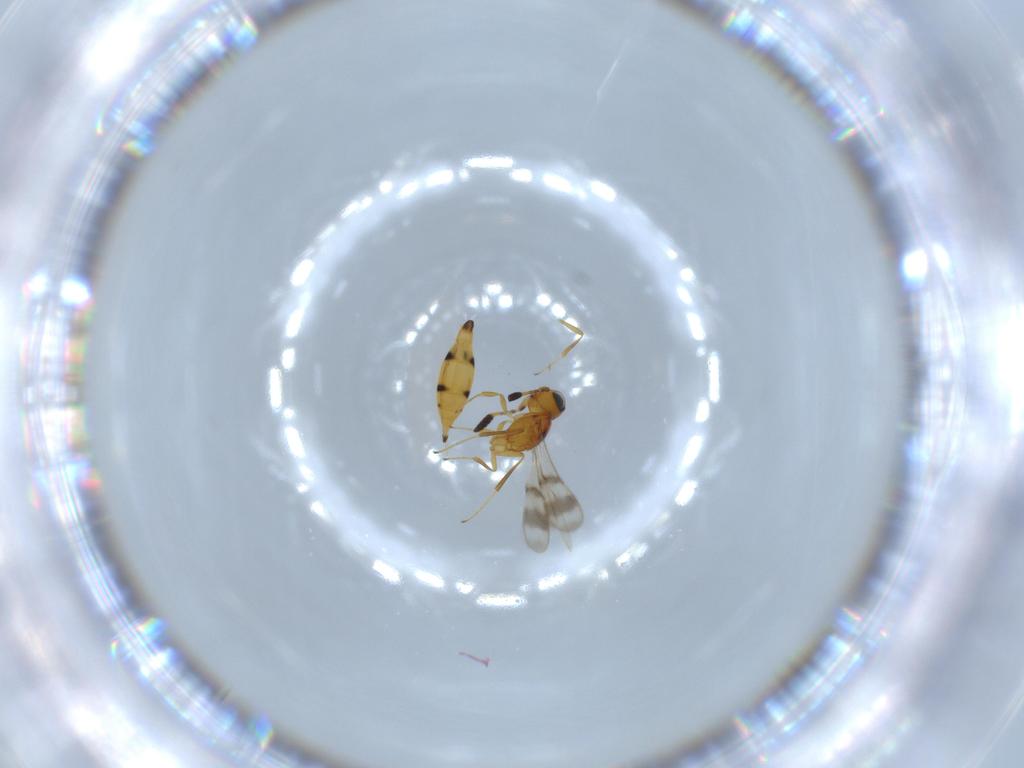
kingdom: Animalia
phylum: Arthropoda
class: Insecta
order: Hymenoptera
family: Scelionidae
